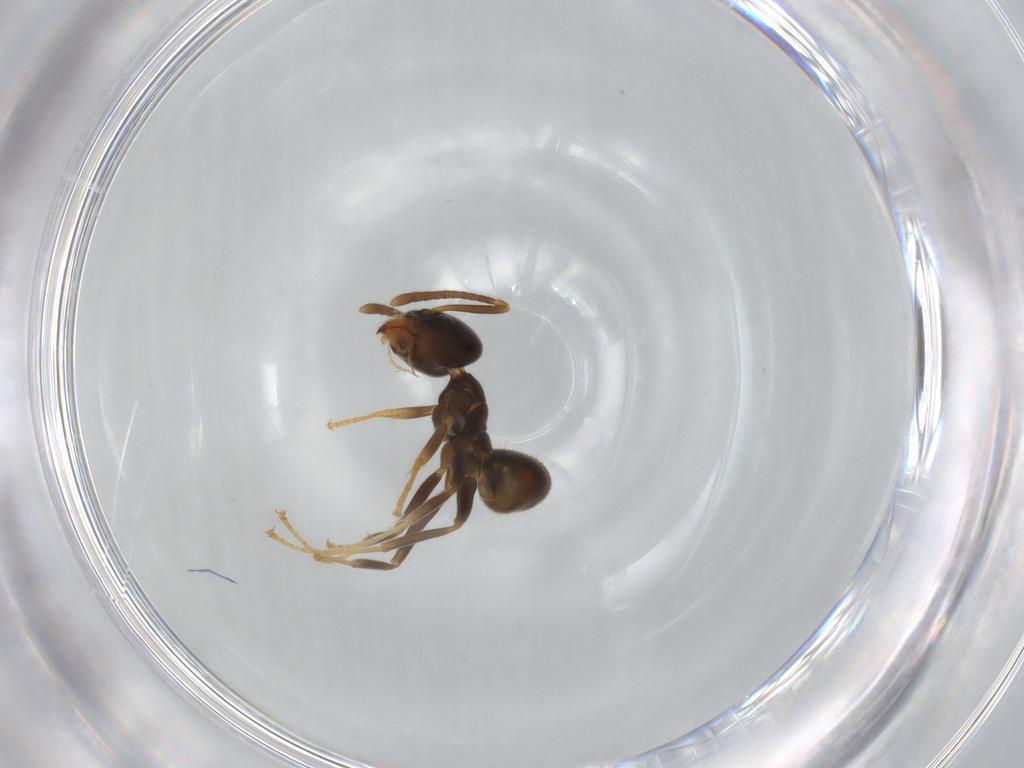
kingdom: Animalia
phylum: Arthropoda
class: Insecta
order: Hymenoptera
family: Formicidae
